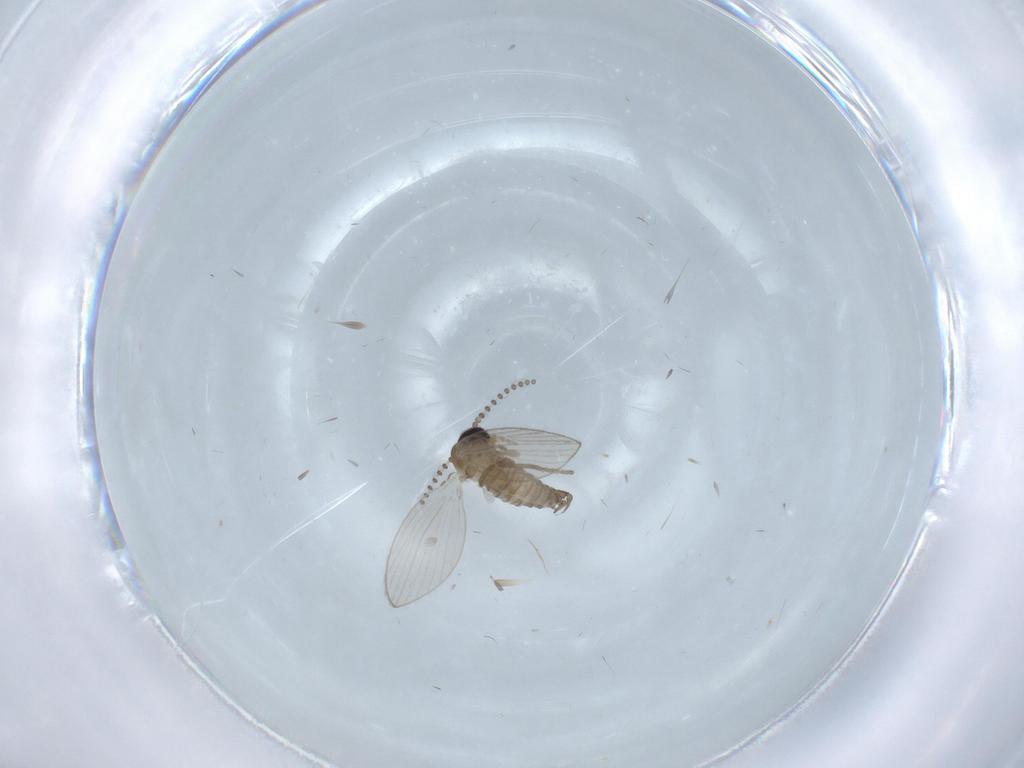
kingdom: Animalia
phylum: Arthropoda
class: Insecta
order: Diptera
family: Psychodidae
